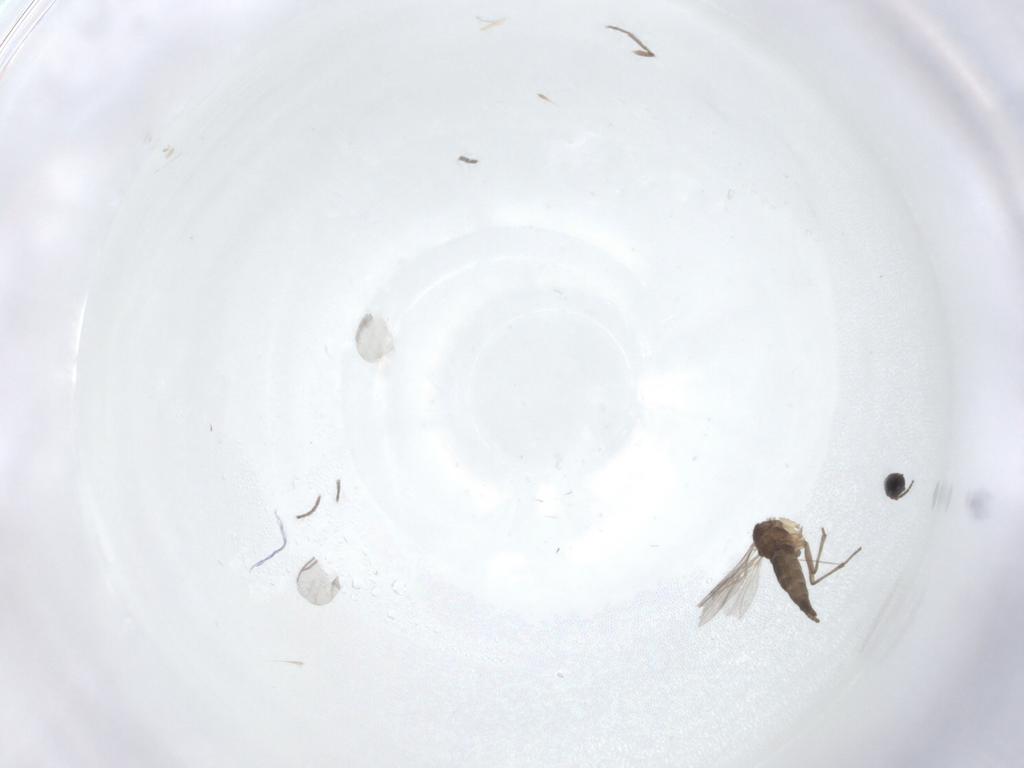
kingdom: Animalia
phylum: Arthropoda
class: Insecta
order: Diptera
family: Sciaridae
